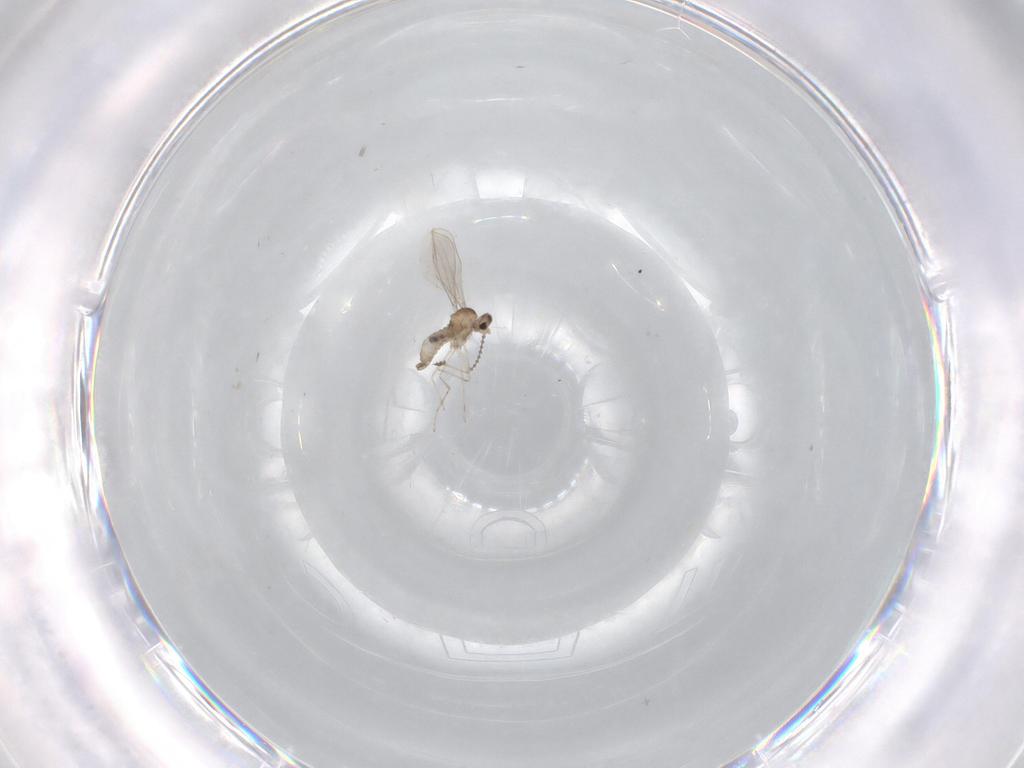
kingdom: Animalia
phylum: Arthropoda
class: Insecta
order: Diptera
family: Cecidomyiidae
